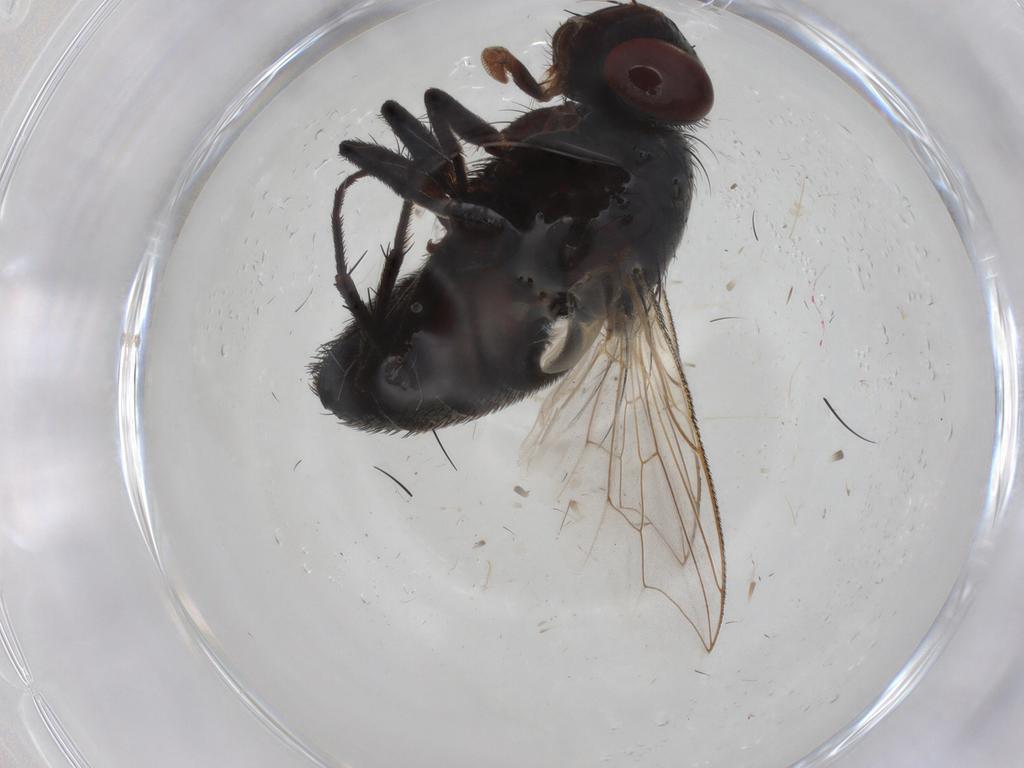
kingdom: Animalia
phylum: Arthropoda
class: Insecta
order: Diptera
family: Sarcophagidae
